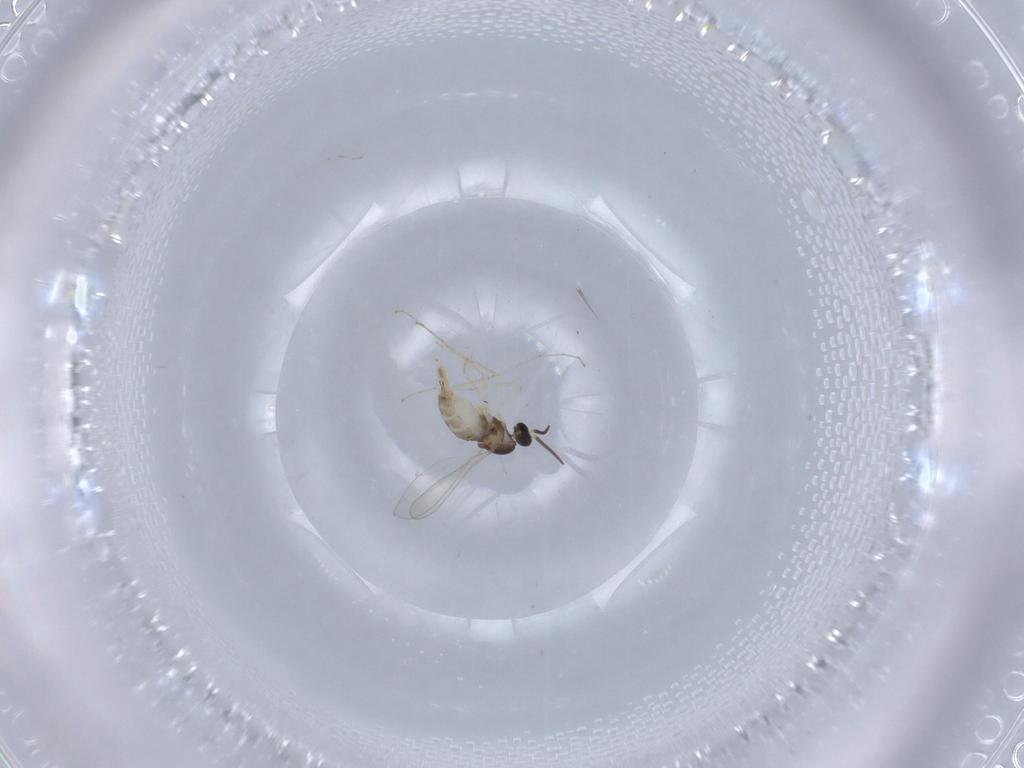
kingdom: Animalia
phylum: Arthropoda
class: Insecta
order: Diptera
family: Cecidomyiidae
